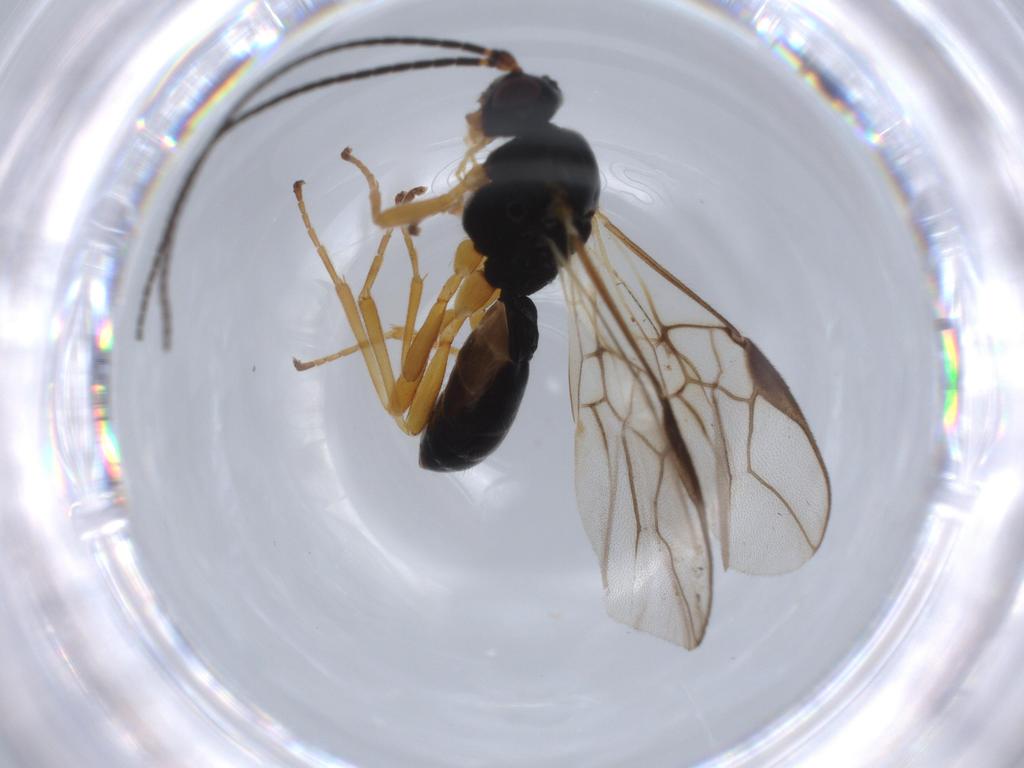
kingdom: Animalia
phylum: Arthropoda
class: Insecta
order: Hymenoptera
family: Braconidae
